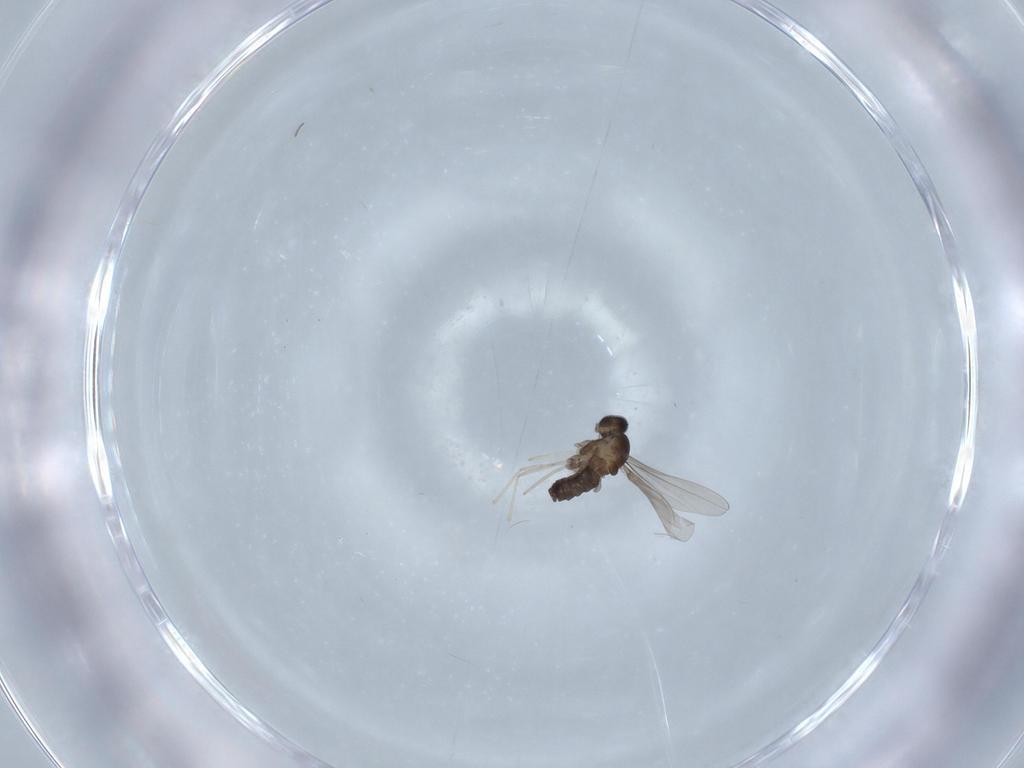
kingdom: Animalia
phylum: Arthropoda
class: Insecta
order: Diptera
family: Cecidomyiidae
